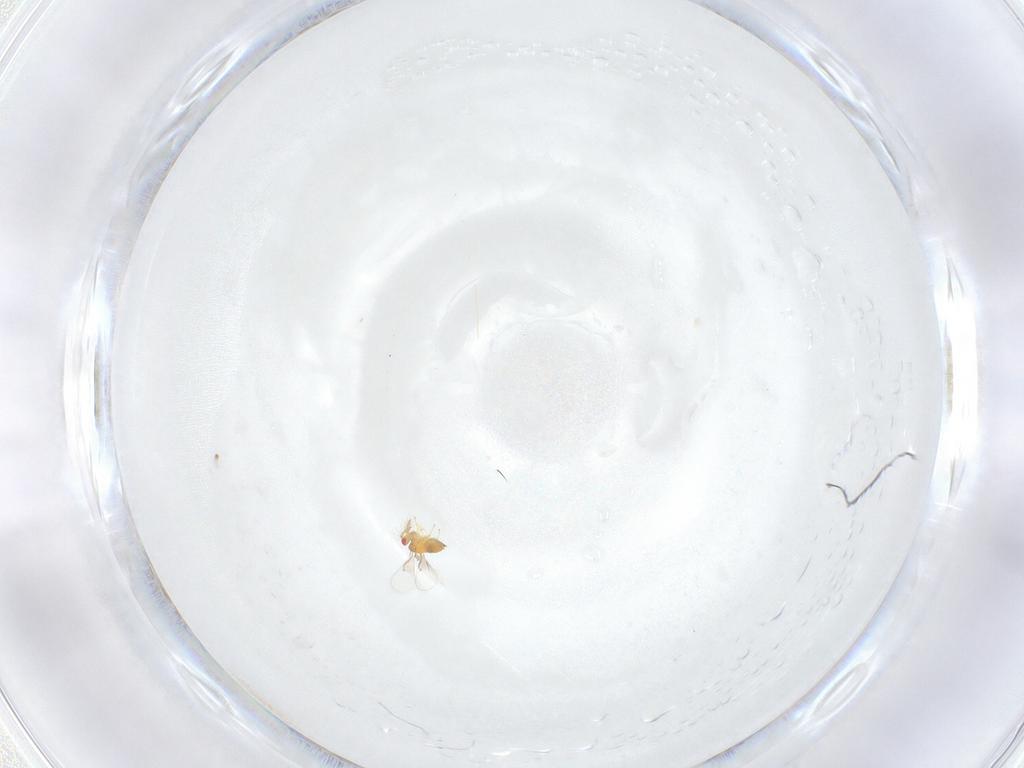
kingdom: Animalia
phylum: Arthropoda
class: Insecta
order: Hymenoptera
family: Trichogrammatidae
